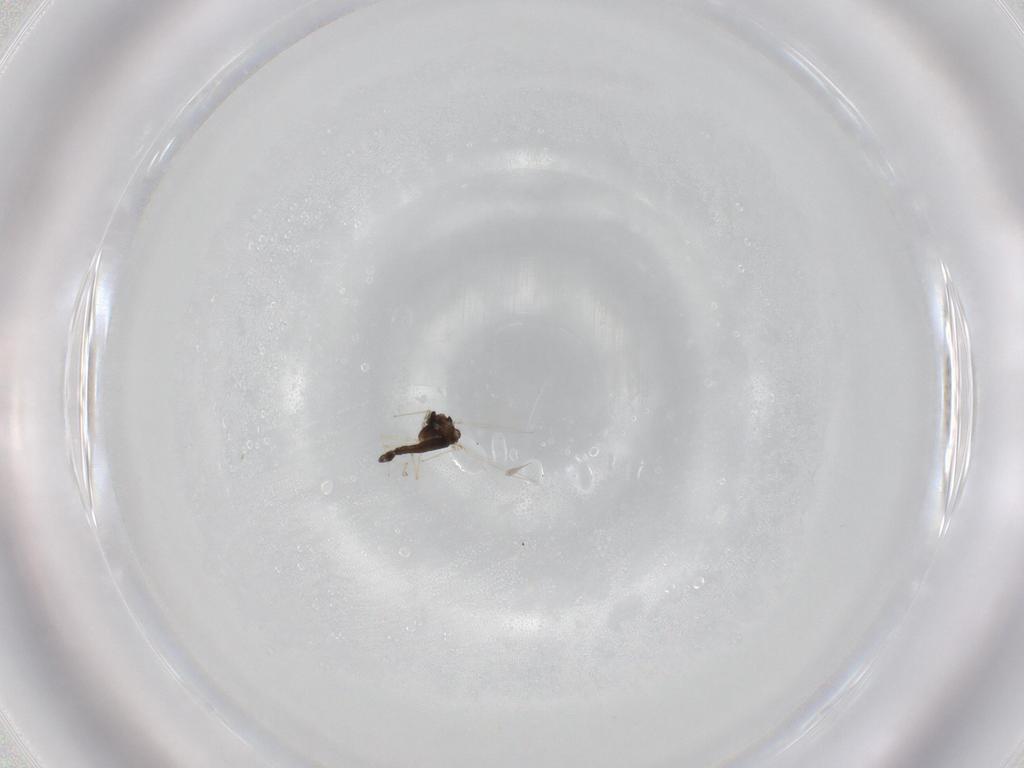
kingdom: Animalia
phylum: Arthropoda
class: Insecta
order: Diptera
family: Chironomidae
